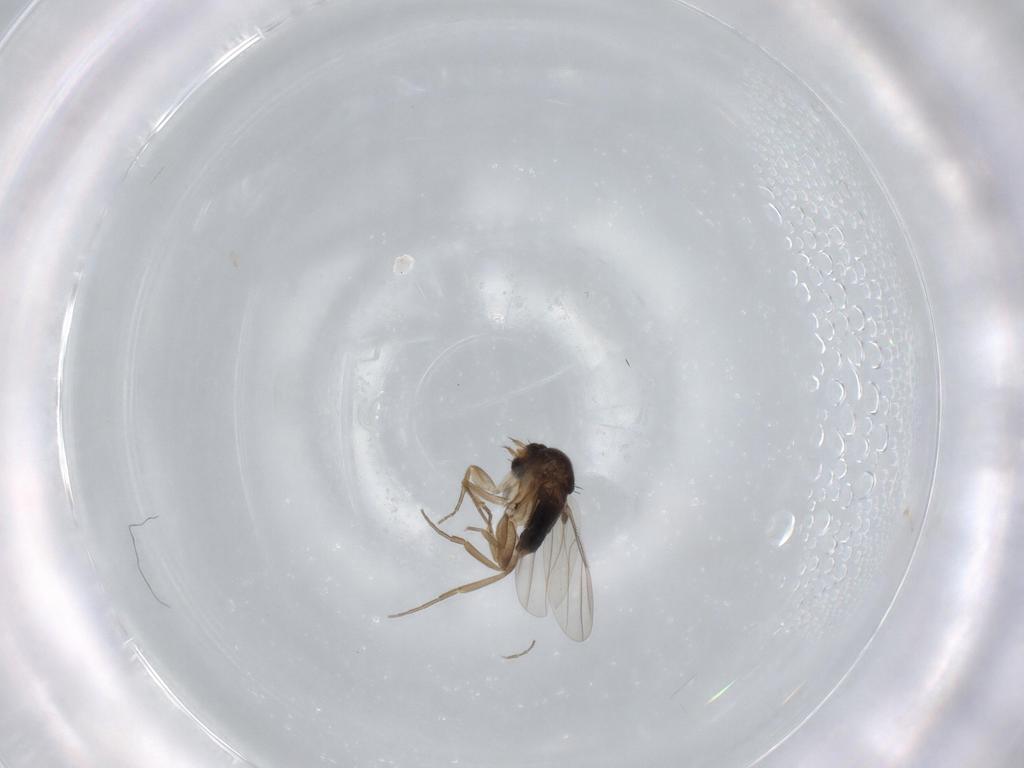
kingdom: Animalia
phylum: Arthropoda
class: Insecta
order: Diptera
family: Phoridae
